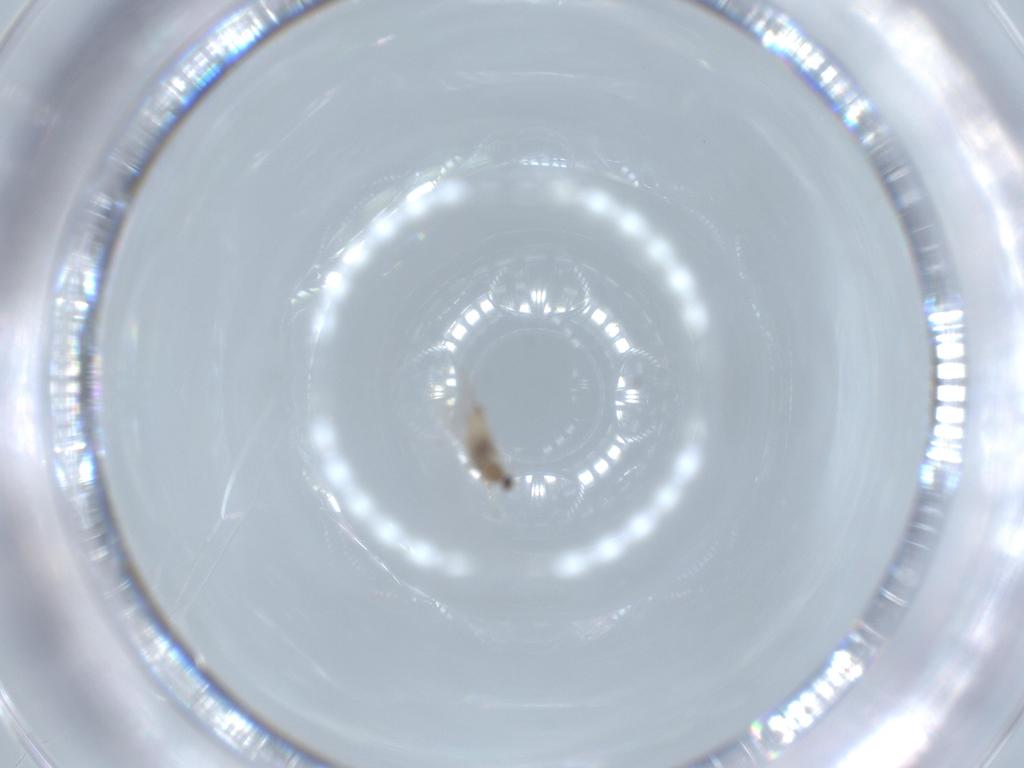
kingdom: Animalia
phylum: Arthropoda
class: Insecta
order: Diptera
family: Cecidomyiidae
